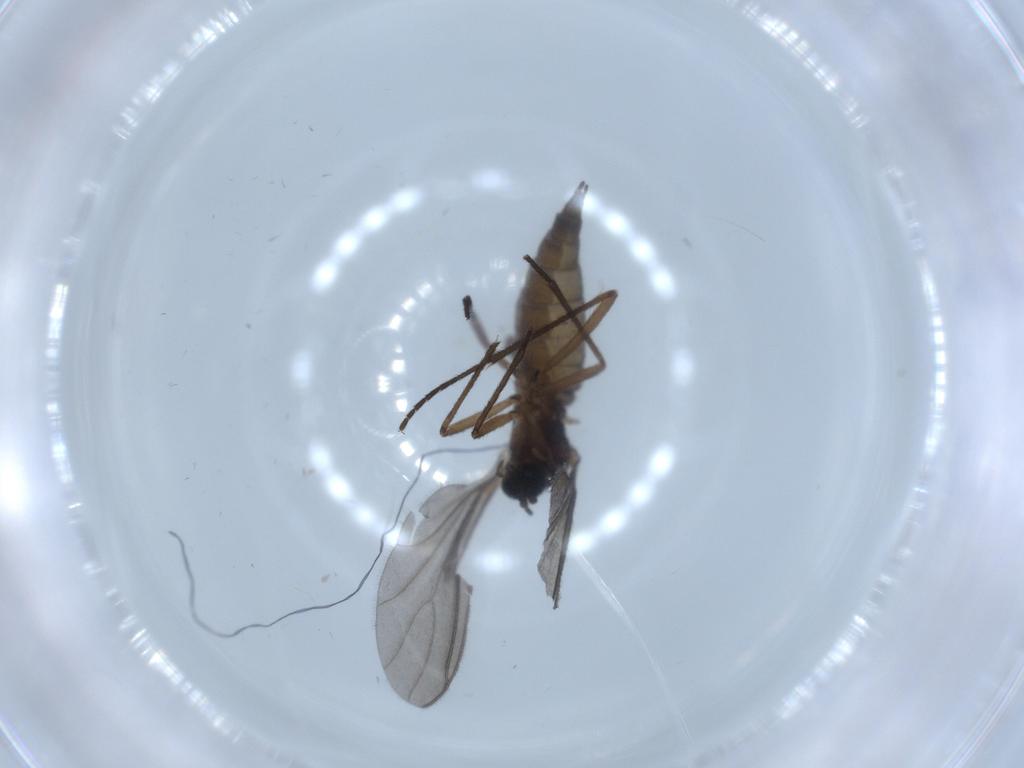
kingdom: Animalia
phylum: Arthropoda
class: Insecta
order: Diptera
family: Sciaridae
